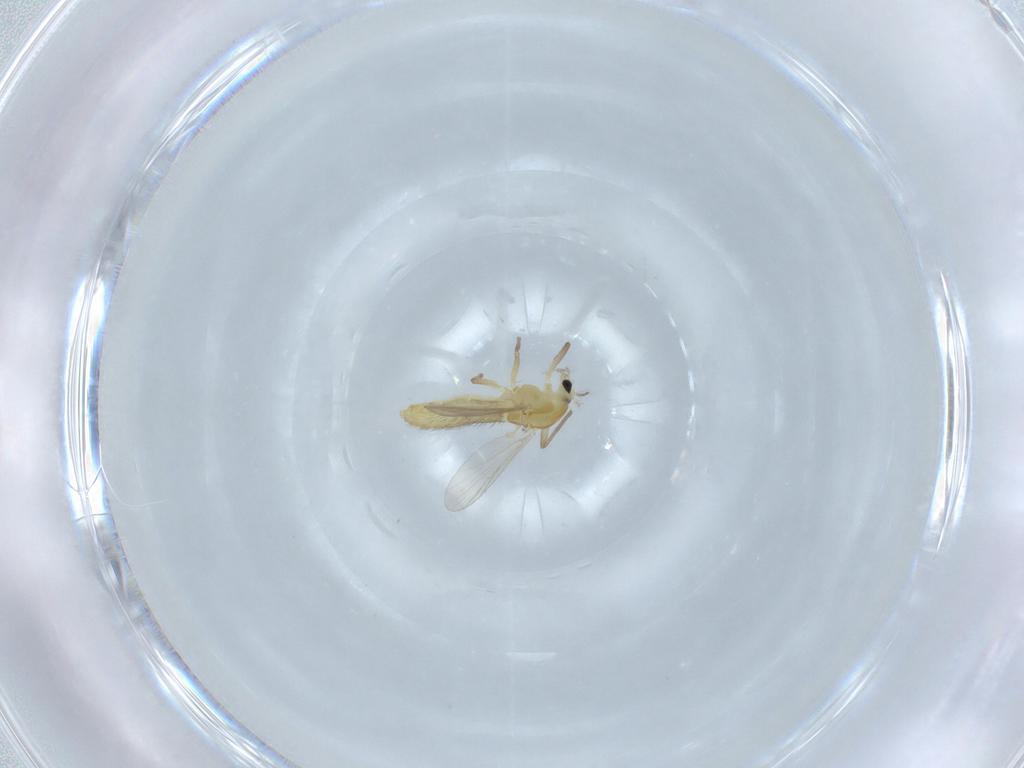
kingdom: Animalia
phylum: Arthropoda
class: Insecta
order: Diptera
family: Chironomidae
